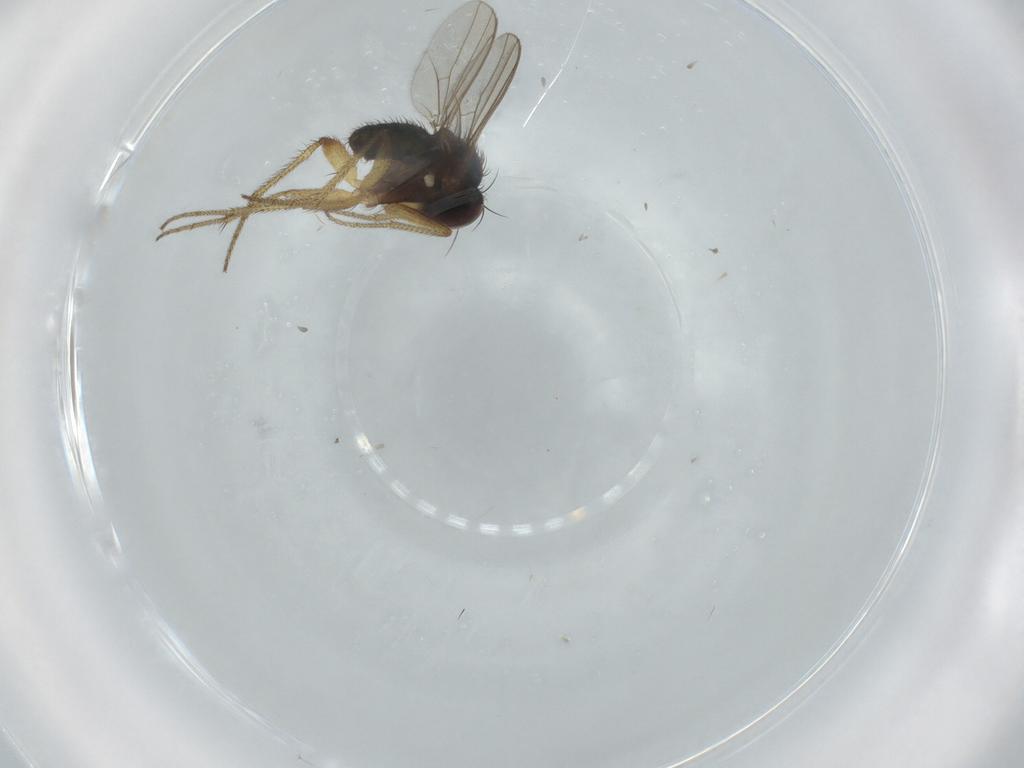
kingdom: Animalia
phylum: Arthropoda
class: Insecta
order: Diptera
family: Dolichopodidae
